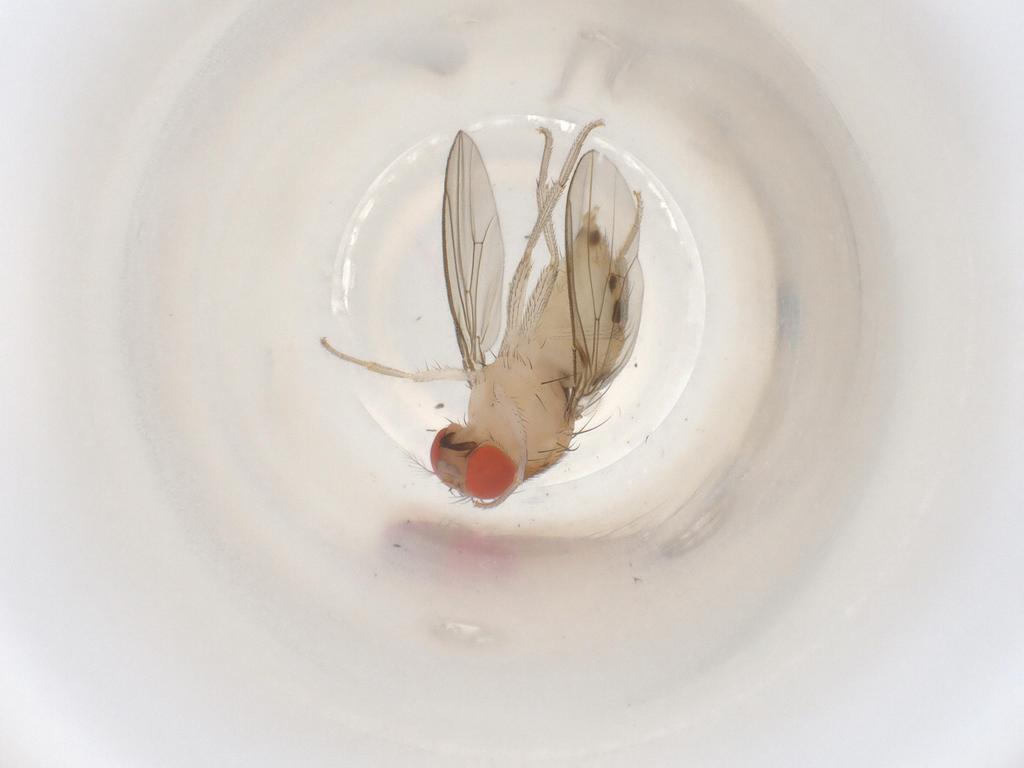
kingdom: Animalia
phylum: Arthropoda
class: Insecta
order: Diptera
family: Drosophilidae
